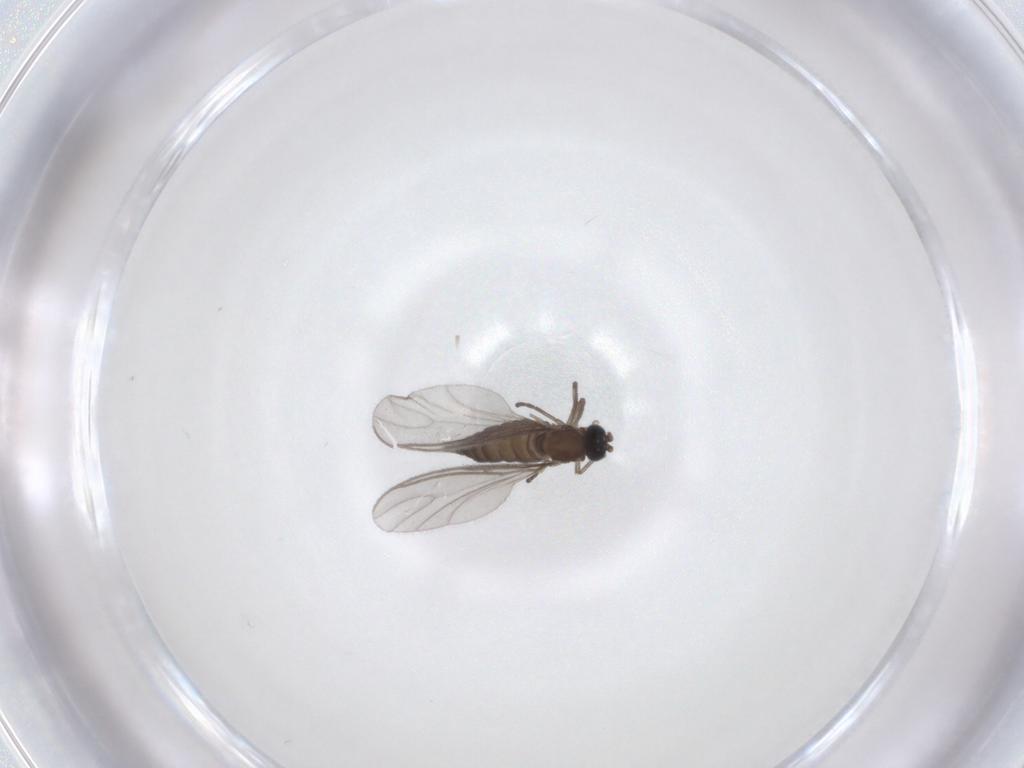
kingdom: Animalia
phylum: Arthropoda
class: Insecta
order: Diptera
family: Sciaridae
